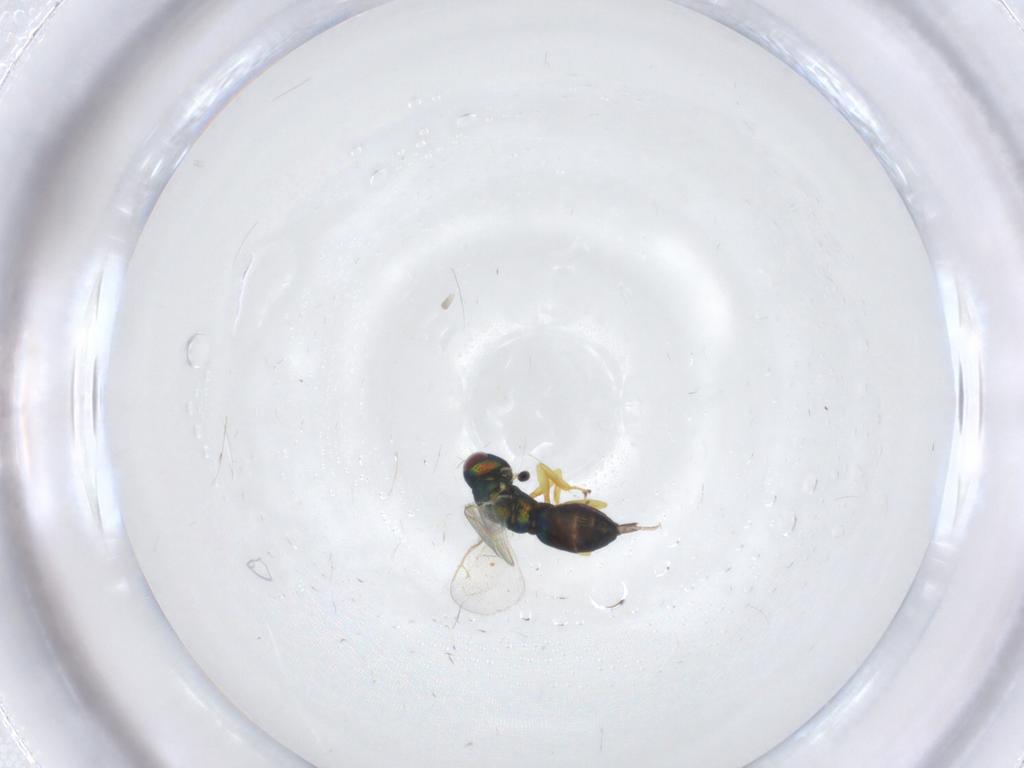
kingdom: Animalia
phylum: Arthropoda
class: Insecta
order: Hymenoptera
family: Pteromalidae
